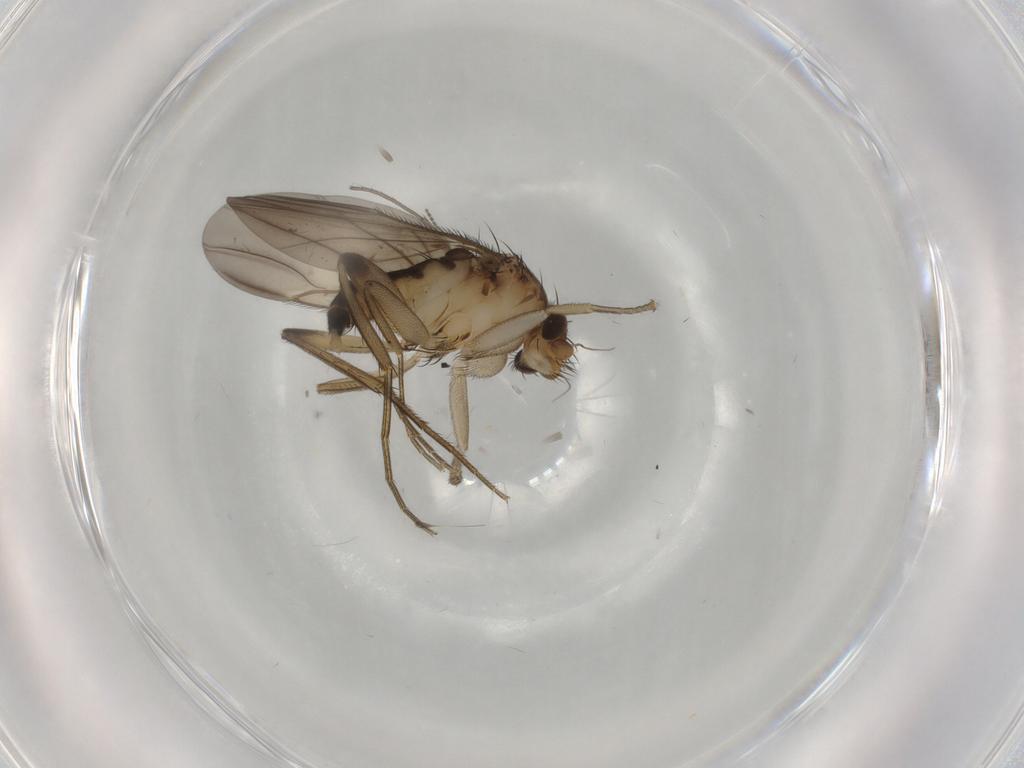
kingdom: Animalia
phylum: Arthropoda
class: Insecta
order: Diptera
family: Phoridae
